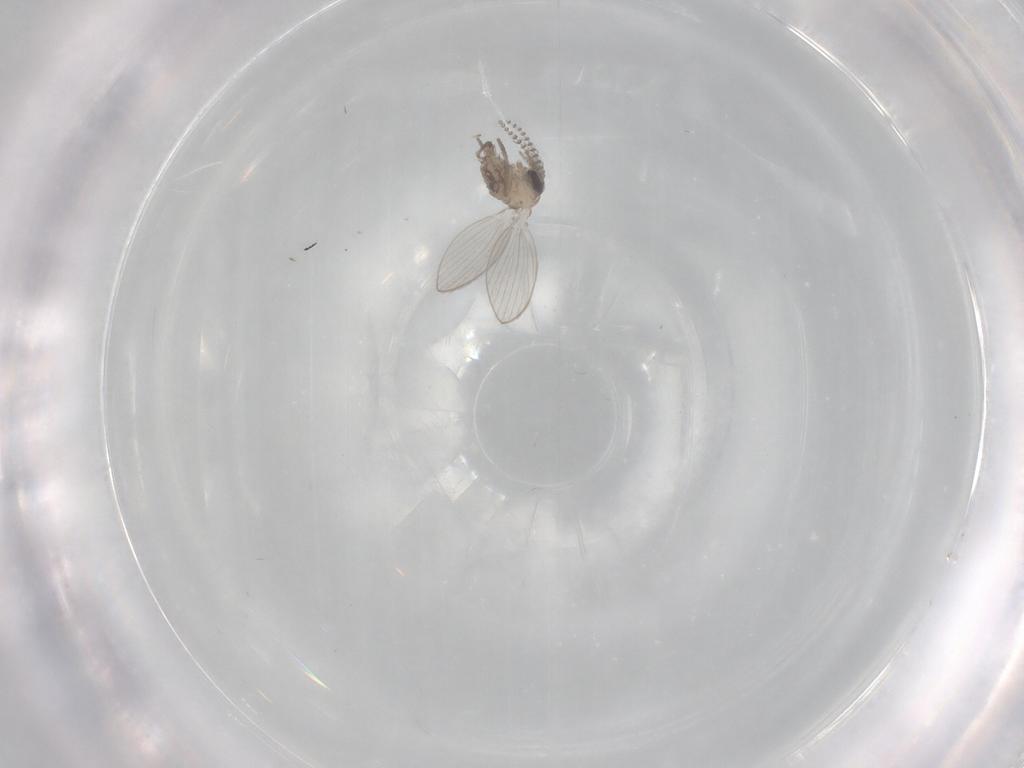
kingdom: Animalia
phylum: Arthropoda
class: Insecta
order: Diptera
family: Psychodidae
